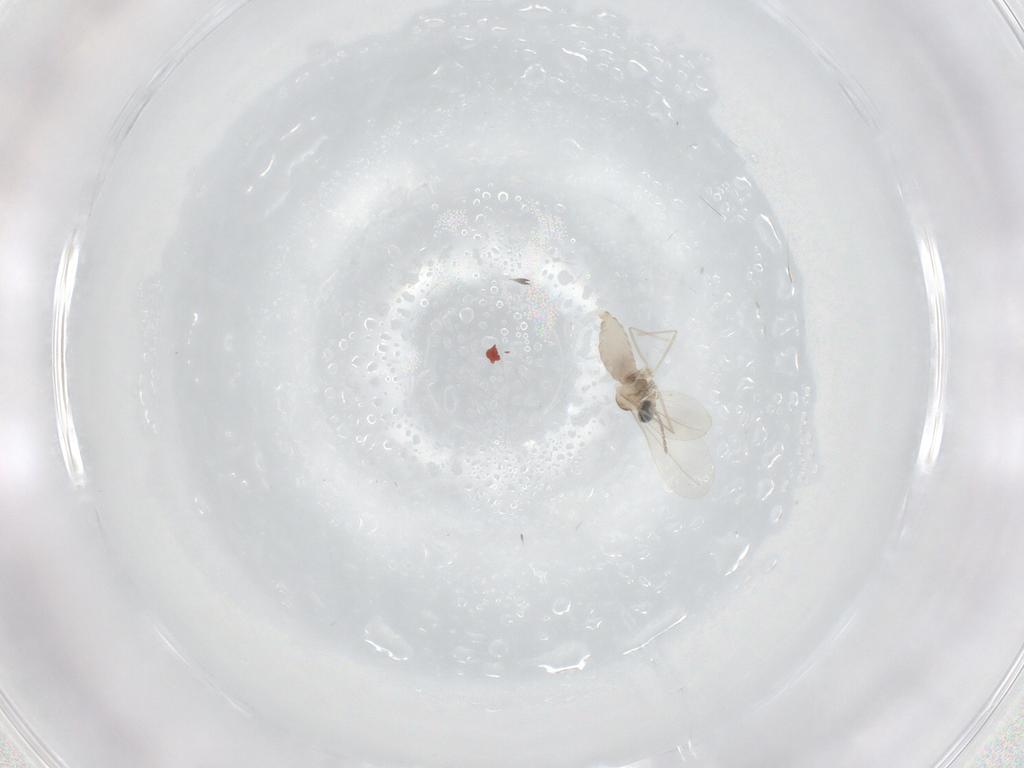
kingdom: Animalia
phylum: Arthropoda
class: Insecta
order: Diptera
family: Cecidomyiidae
